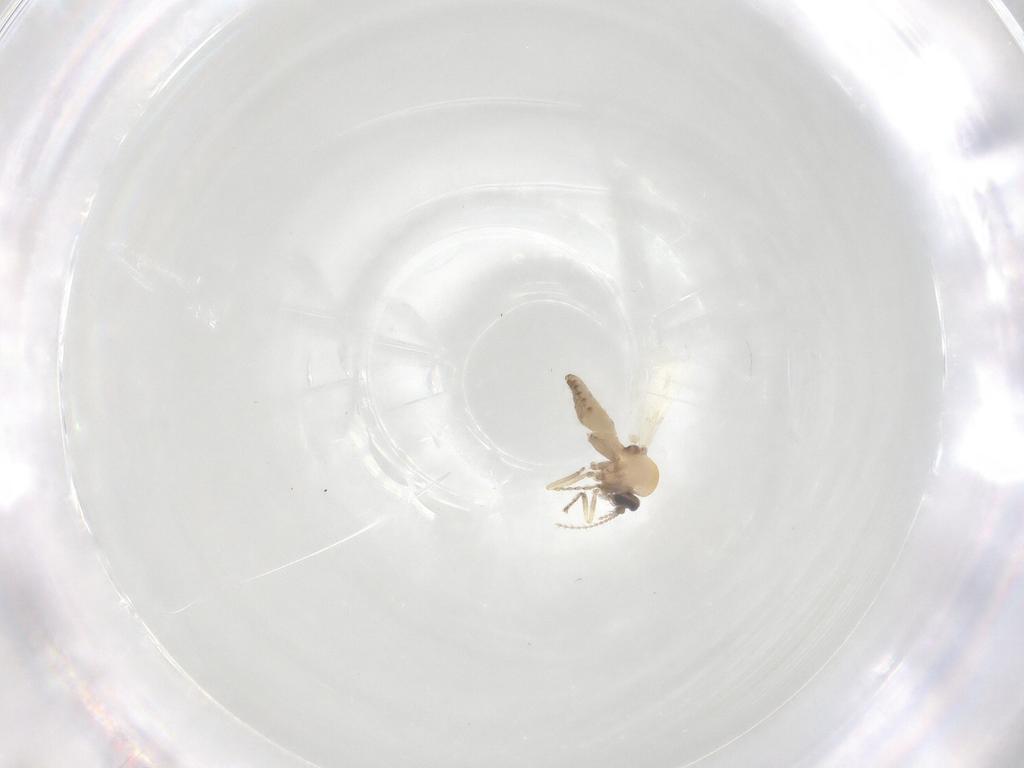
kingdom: Animalia
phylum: Arthropoda
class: Insecta
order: Diptera
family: Ceratopogonidae
